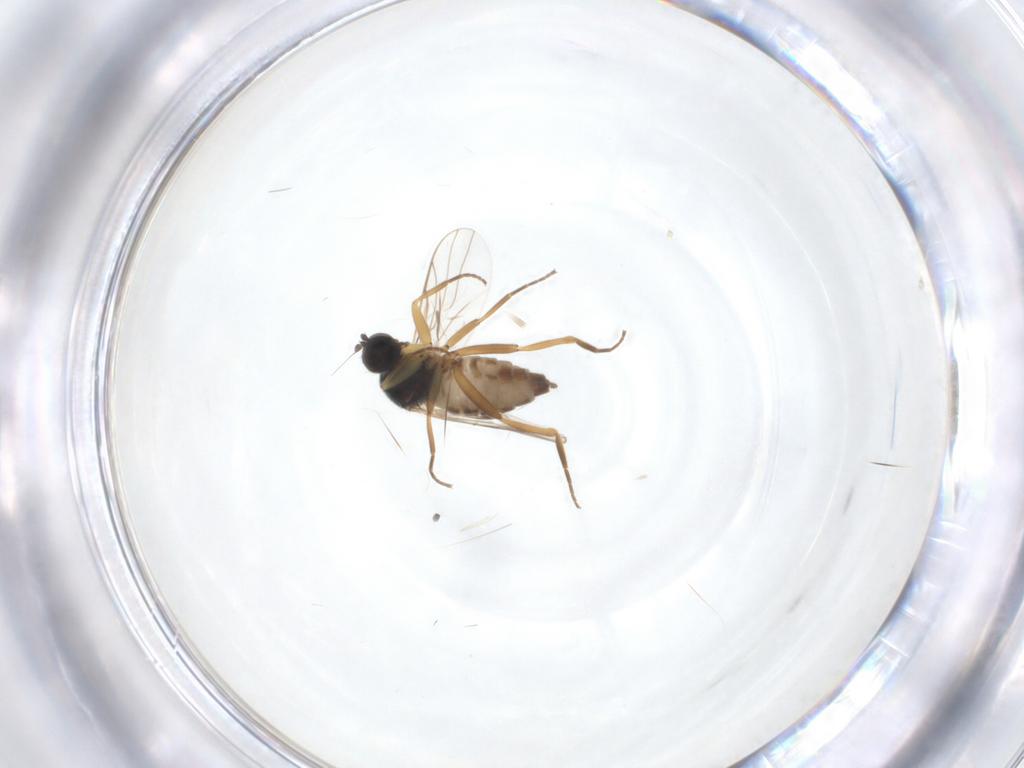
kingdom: Animalia
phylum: Arthropoda
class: Insecta
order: Diptera
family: Hybotidae
